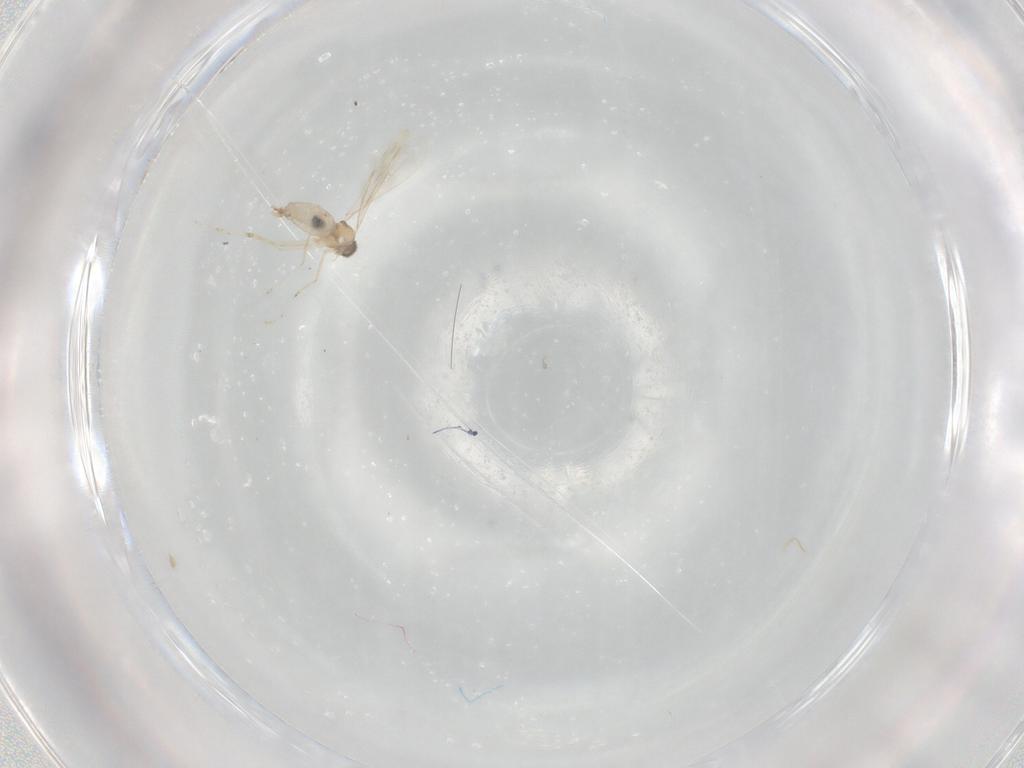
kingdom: Animalia
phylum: Arthropoda
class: Insecta
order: Diptera
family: Cecidomyiidae
